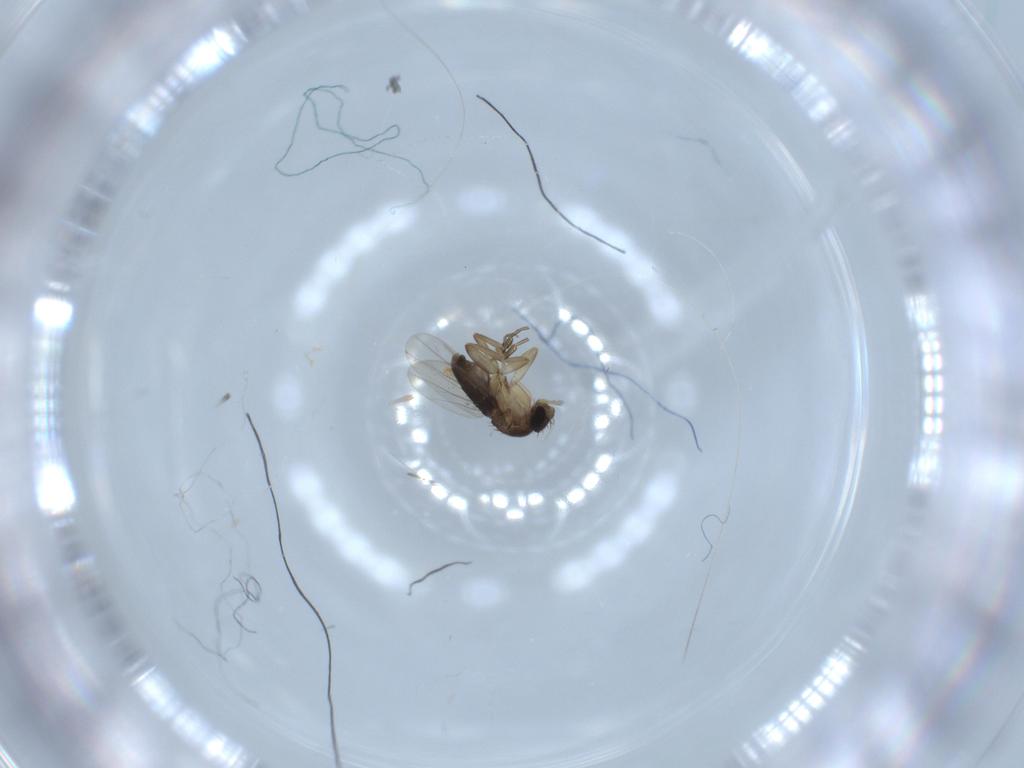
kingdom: Animalia
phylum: Arthropoda
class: Insecta
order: Diptera
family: Phoridae
